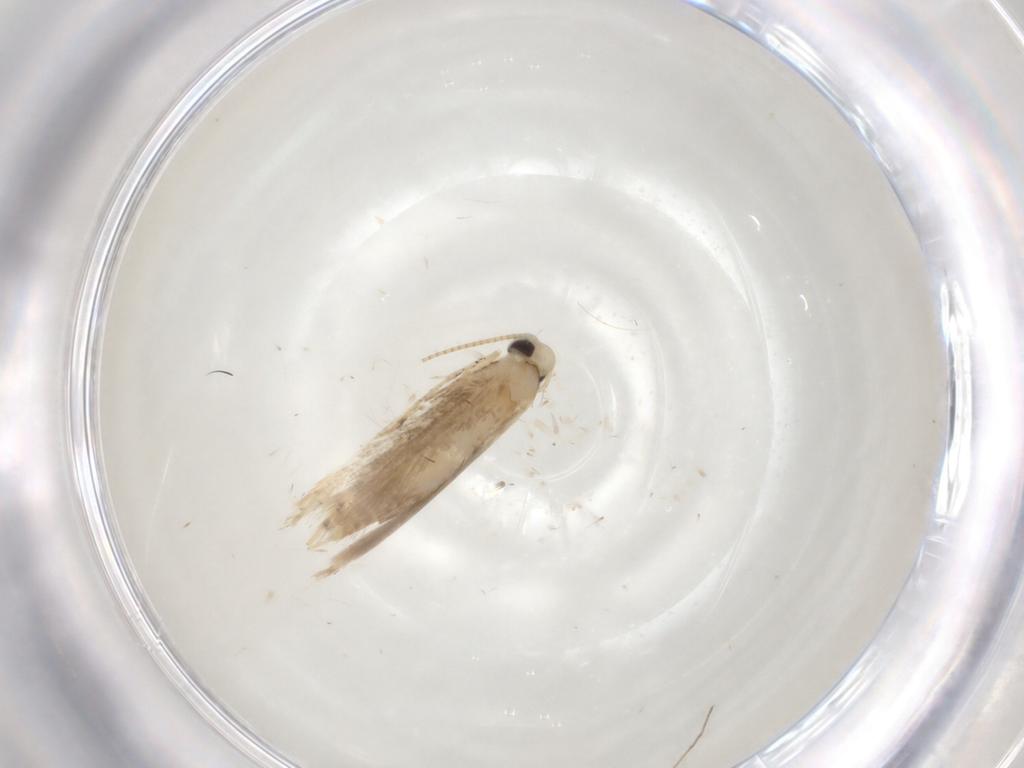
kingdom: Animalia
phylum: Arthropoda
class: Insecta
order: Lepidoptera
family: Gracillariidae
